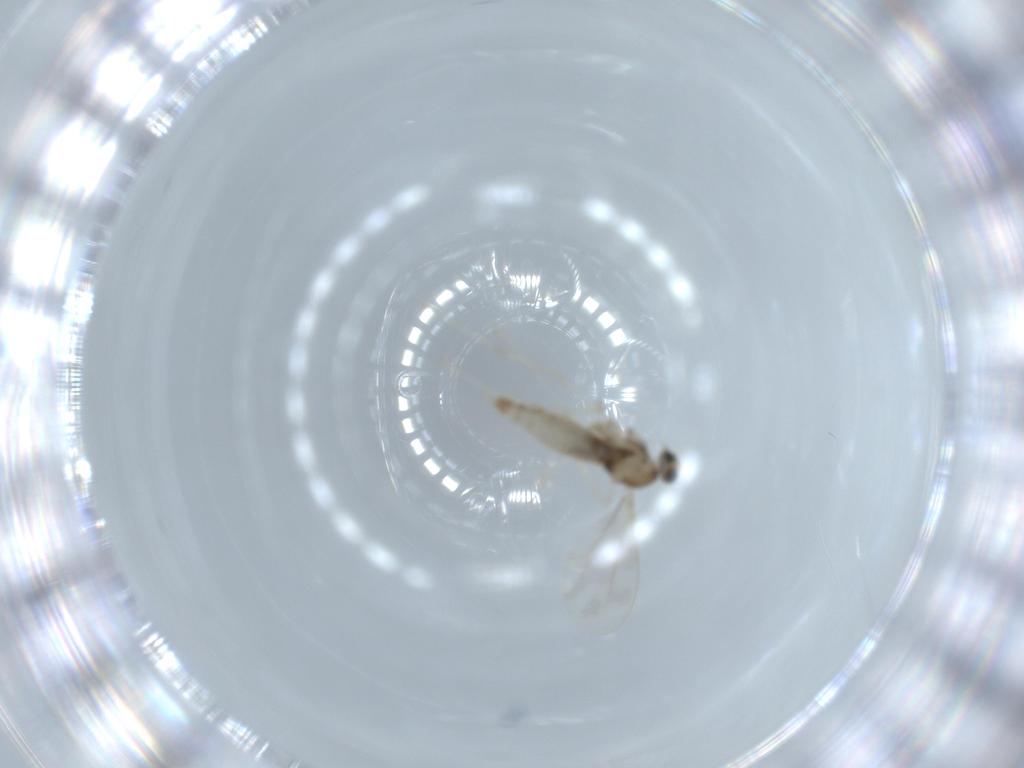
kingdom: Animalia
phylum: Arthropoda
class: Insecta
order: Diptera
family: Cecidomyiidae
